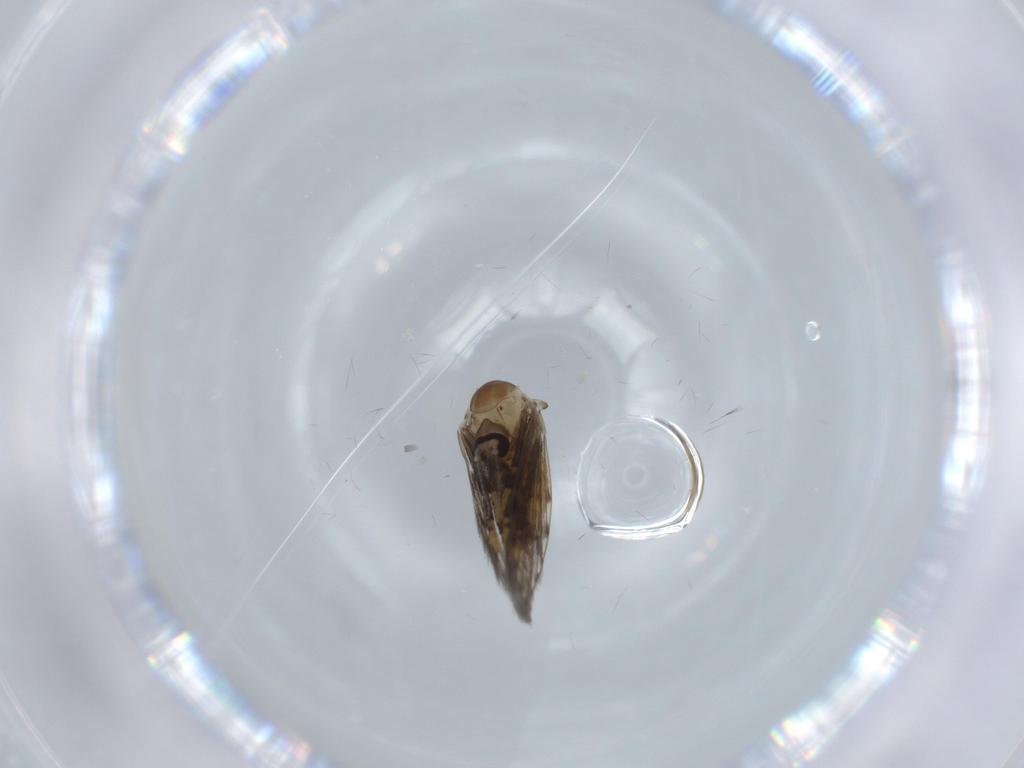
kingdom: Animalia
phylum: Arthropoda
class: Insecta
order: Diptera
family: Psychodidae
